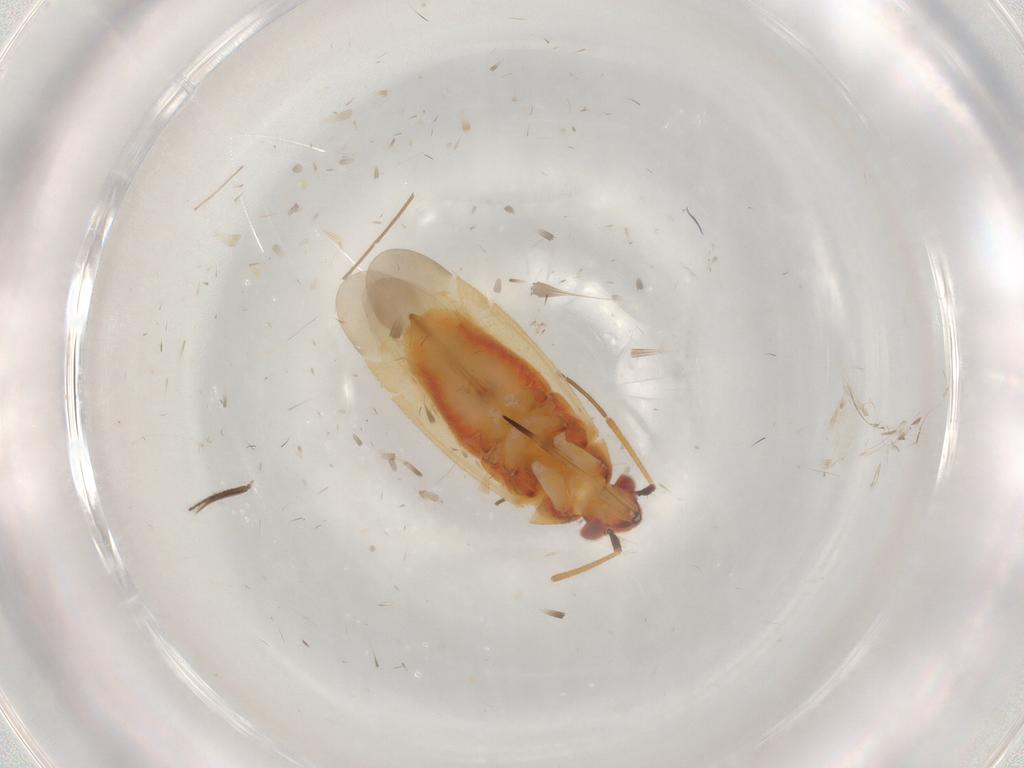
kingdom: Animalia
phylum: Arthropoda
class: Insecta
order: Hemiptera
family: Miridae
